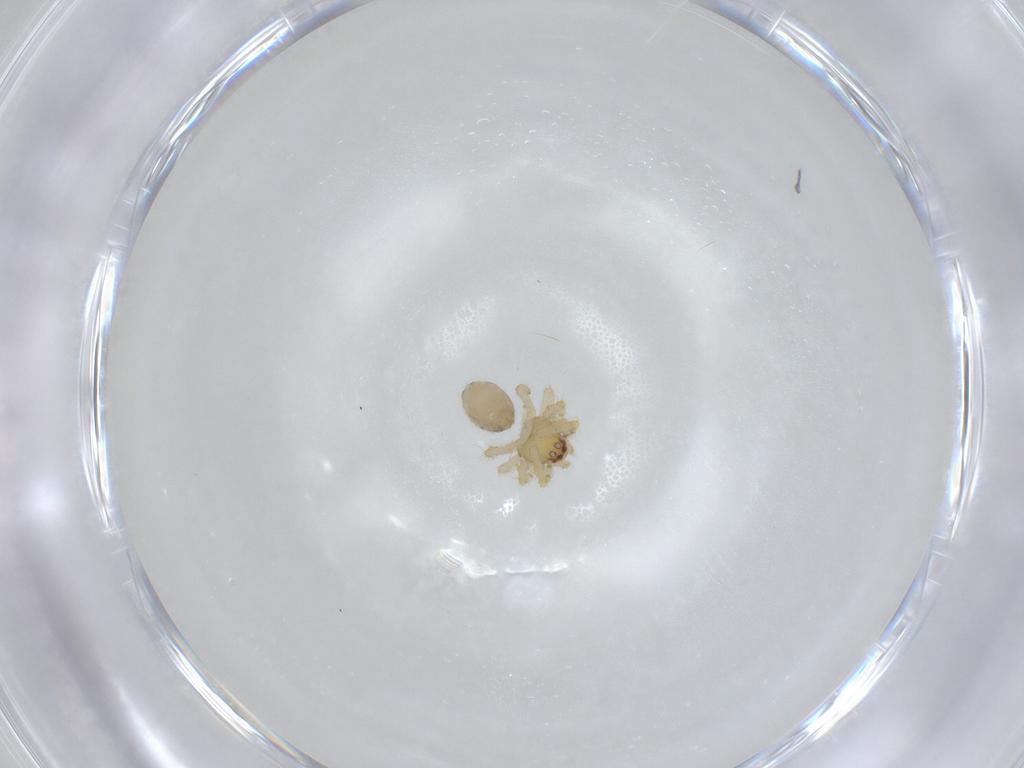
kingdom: Animalia
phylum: Arthropoda
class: Arachnida
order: Araneae
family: Theridiidae
